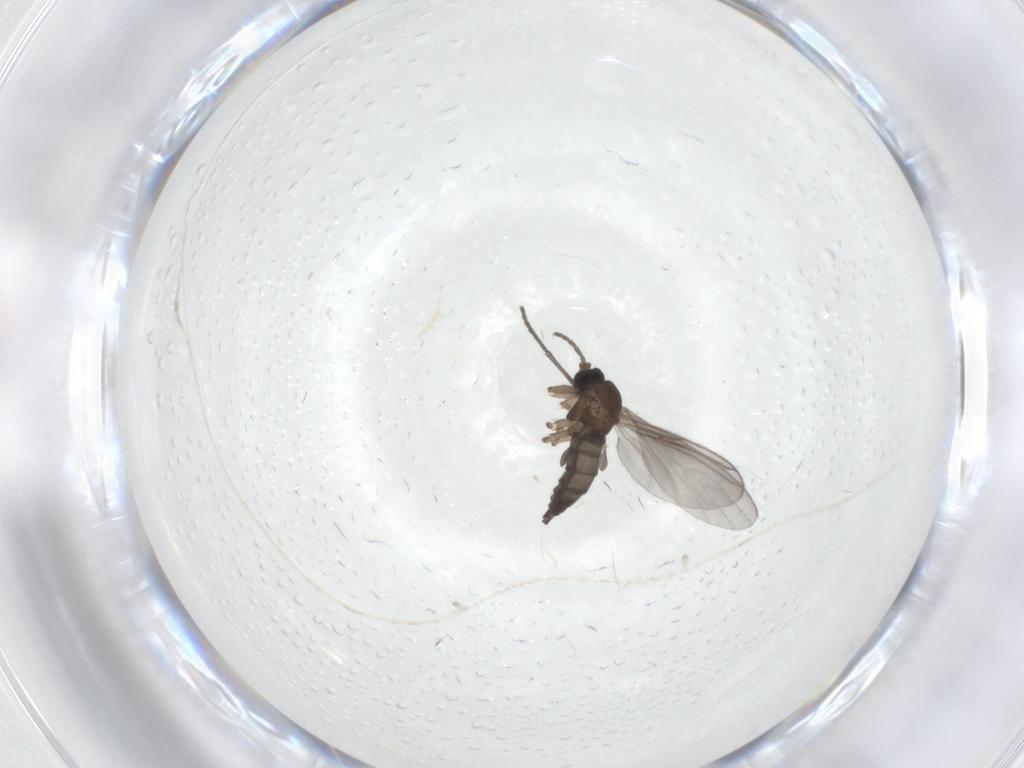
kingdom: Animalia
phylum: Arthropoda
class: Insecta
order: Diptera
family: Sciaridae
